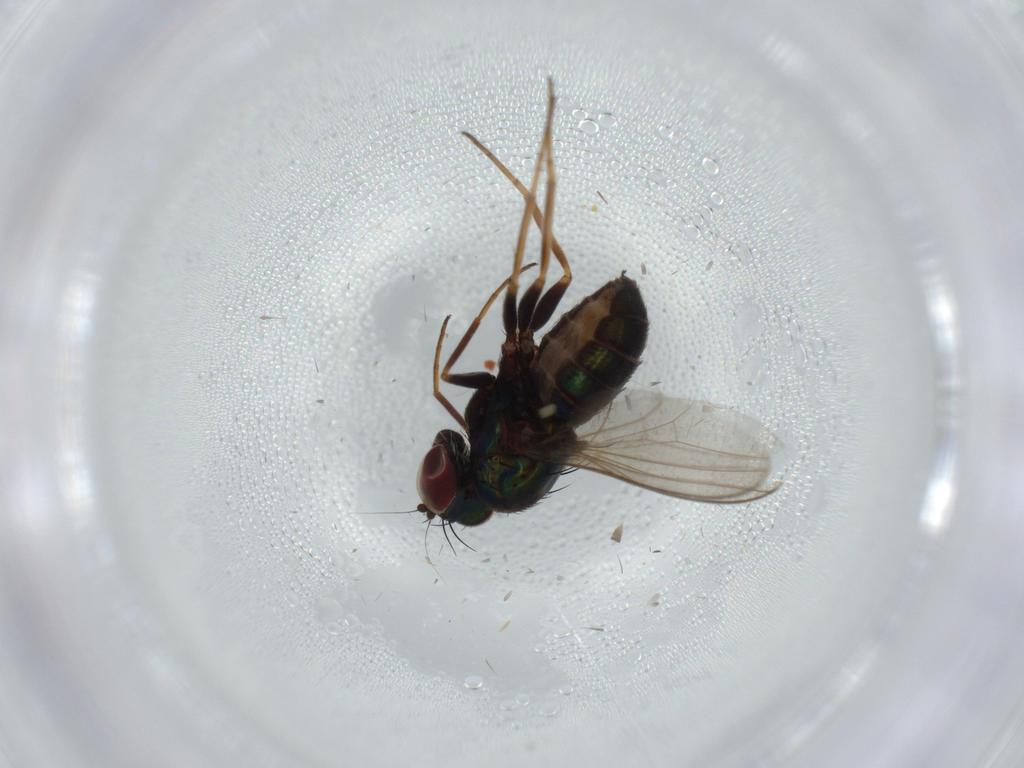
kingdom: Animalia
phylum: Arthropoda
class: Insecta
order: Diptera
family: Dolichopodidae
